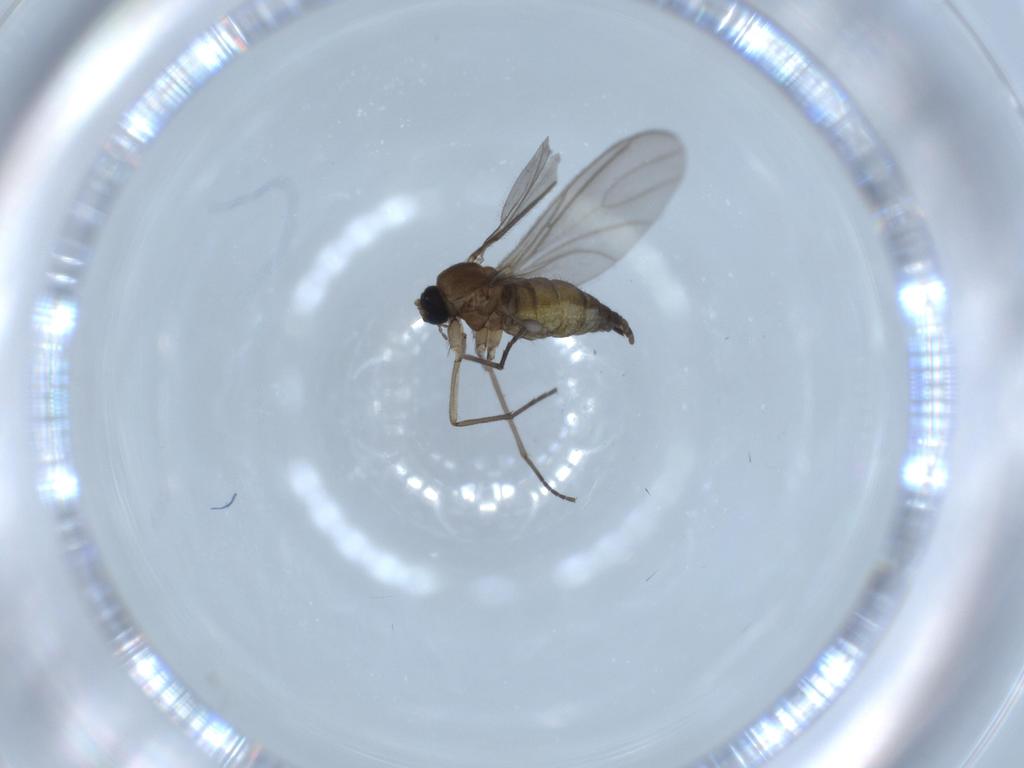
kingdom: Animalia
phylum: Arthropoda
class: Insecta
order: Diptera
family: Sciaridae
